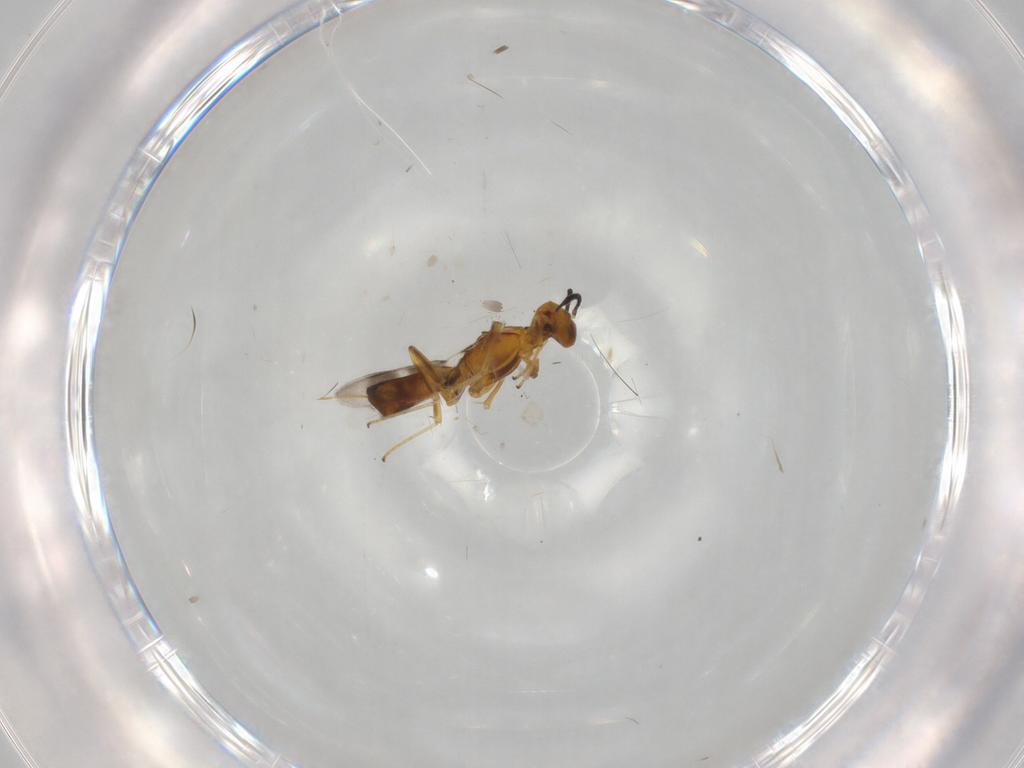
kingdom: Animalia
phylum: Arthropoda
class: Insecta
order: Hymenoptera
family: Eupelmidae
